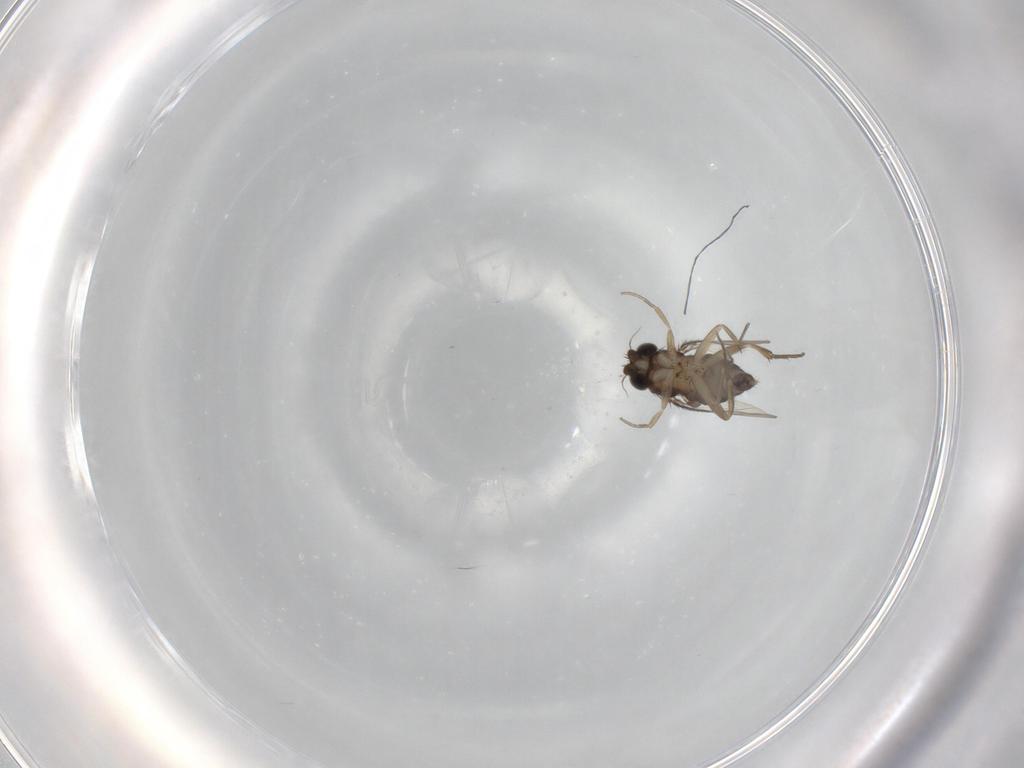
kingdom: Animalia
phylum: Arthropoda
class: Insecta
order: Diptera
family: Phoridae
